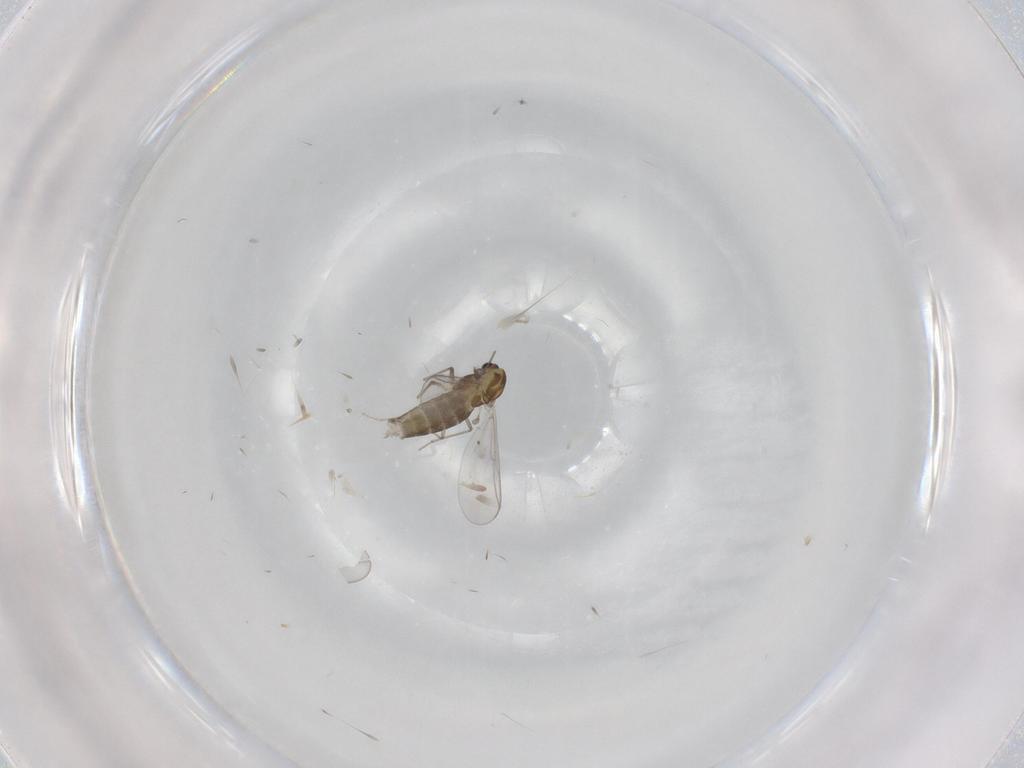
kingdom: Animalia
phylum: Arthropoda
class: Insecta
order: Diptera
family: Chironomidae
